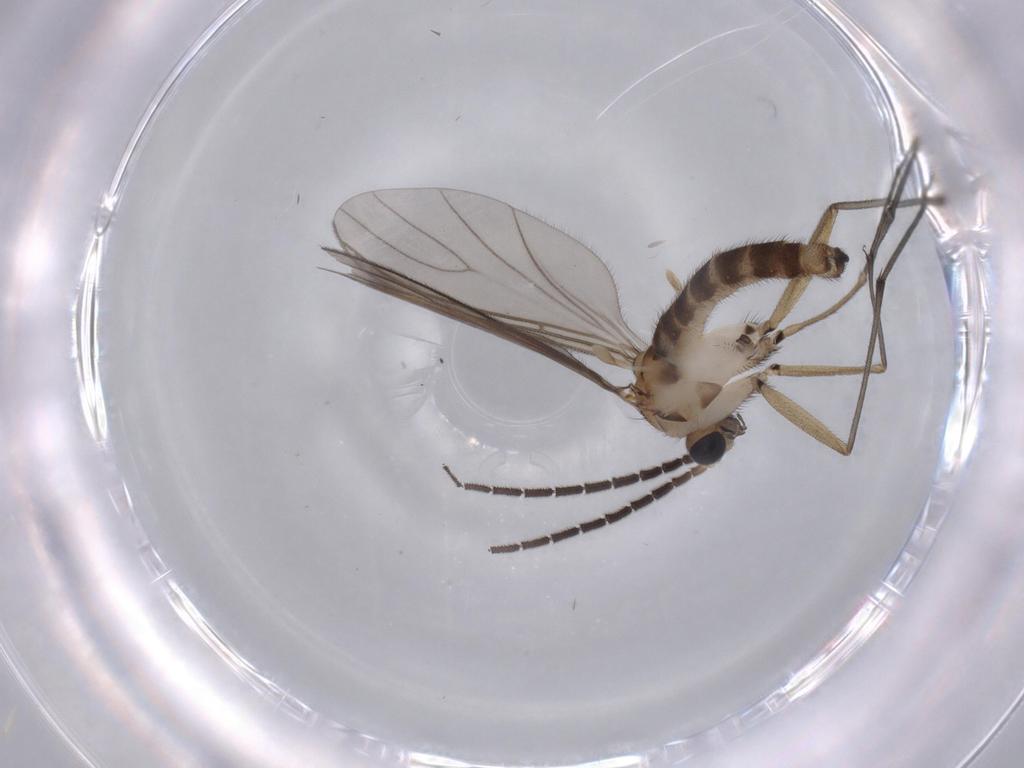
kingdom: Animalia
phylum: Arthropoda
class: Insecta
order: Diptera
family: Sciaridae
